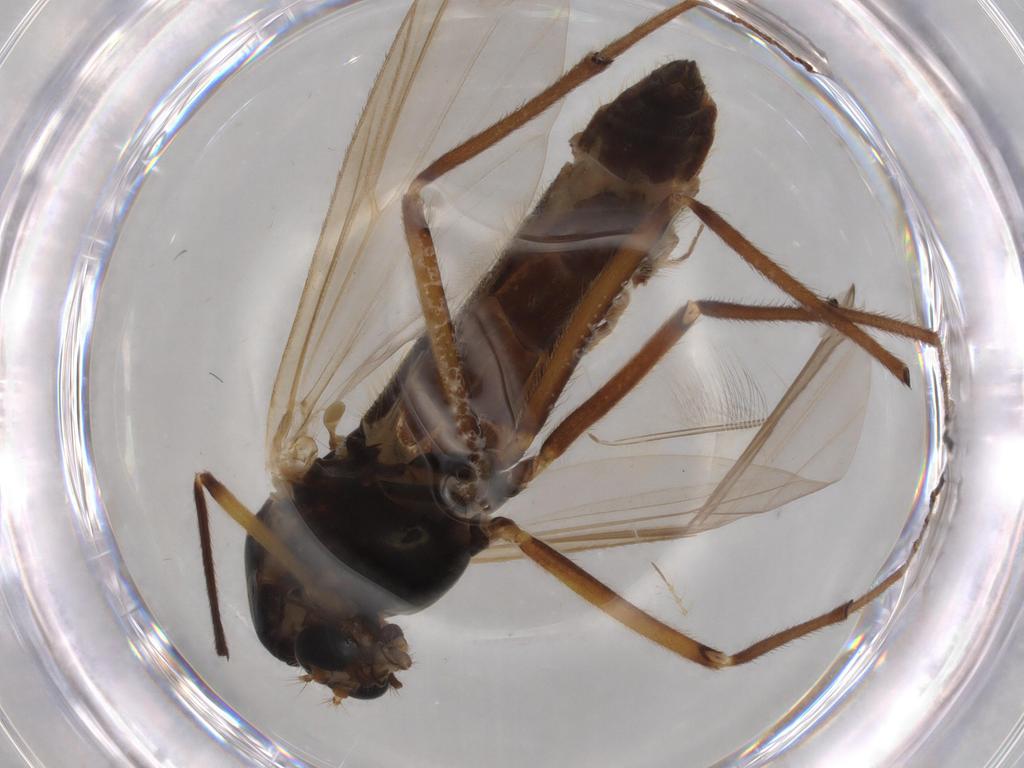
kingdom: Animalia
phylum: Arthropoda
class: Insecta
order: Diptera
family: Chironomidae
